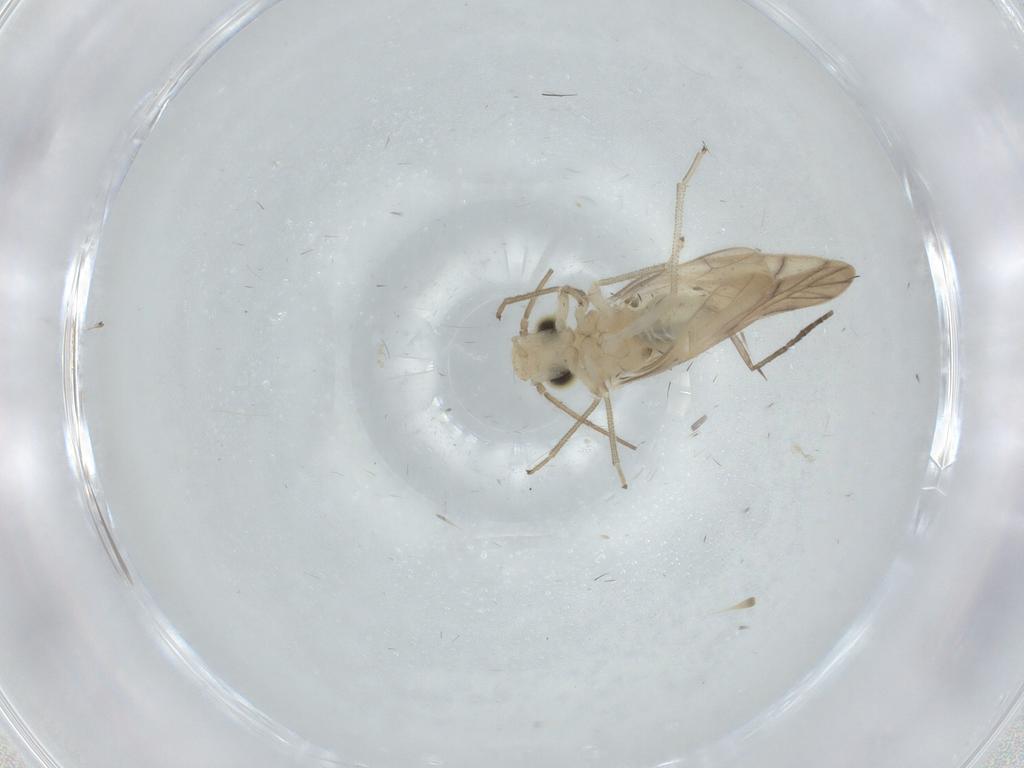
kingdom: Animalia
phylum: Arthropoda
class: Insecta
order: Psocodea
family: Caeciliusidae
